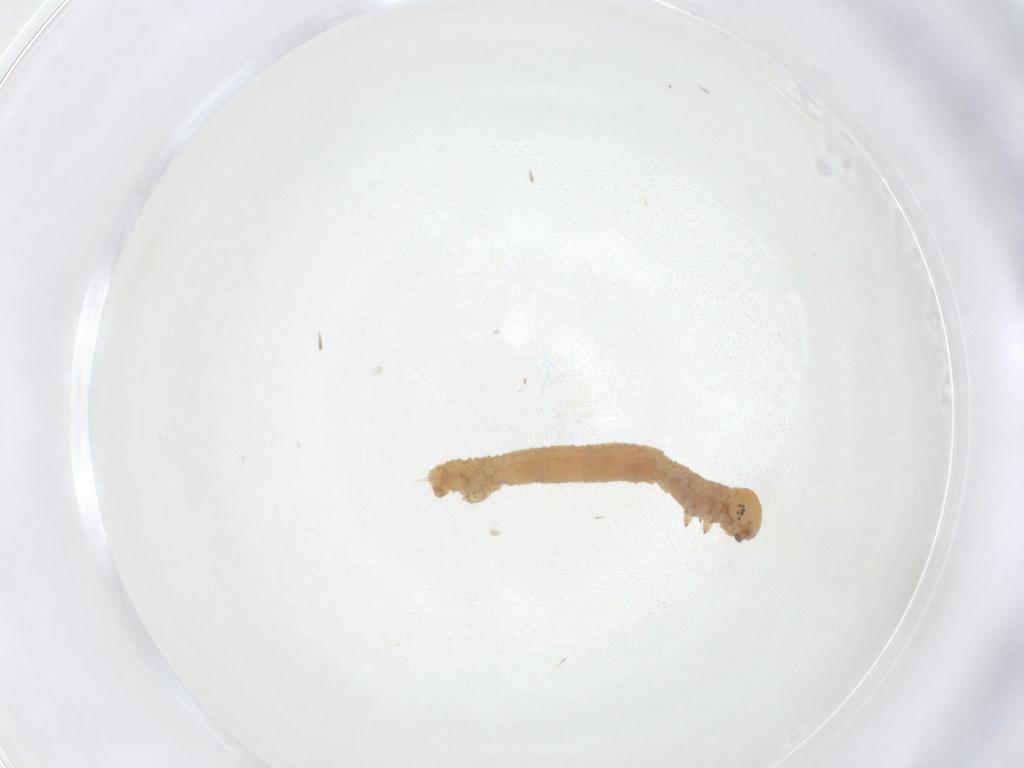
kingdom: Animalia
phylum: Arthropoda
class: Insecta
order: Lepidoptera
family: Geometridae
